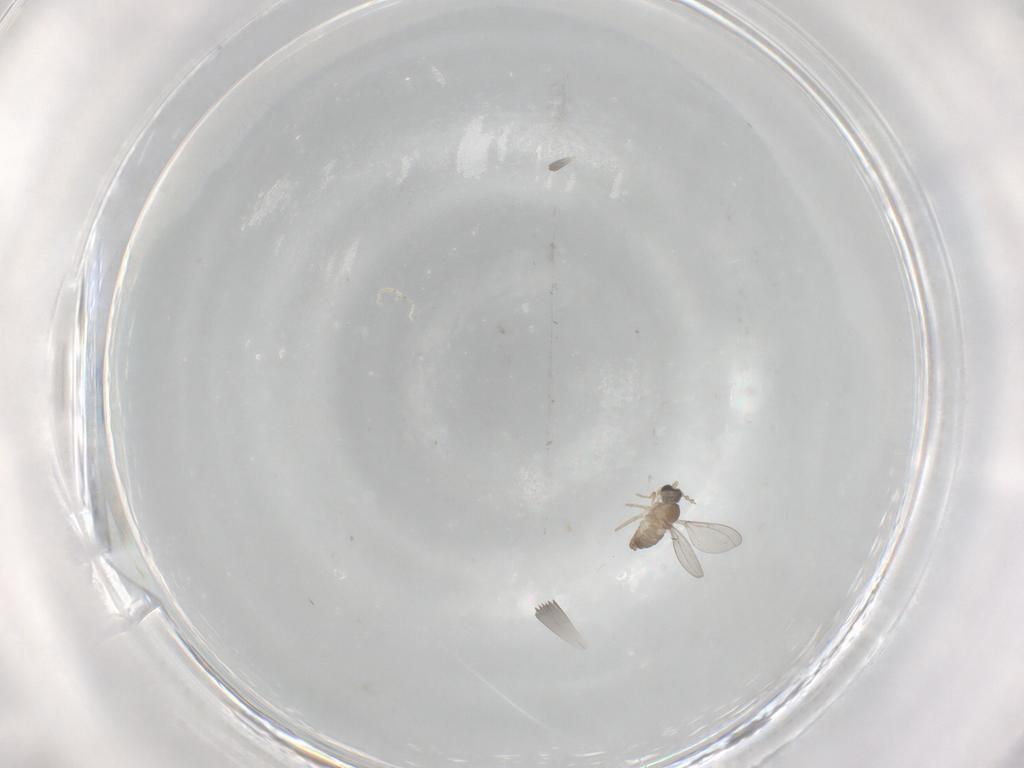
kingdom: Animalia
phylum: Arthropoda
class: Insecta
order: Diptera
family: Cecidomyiidae
